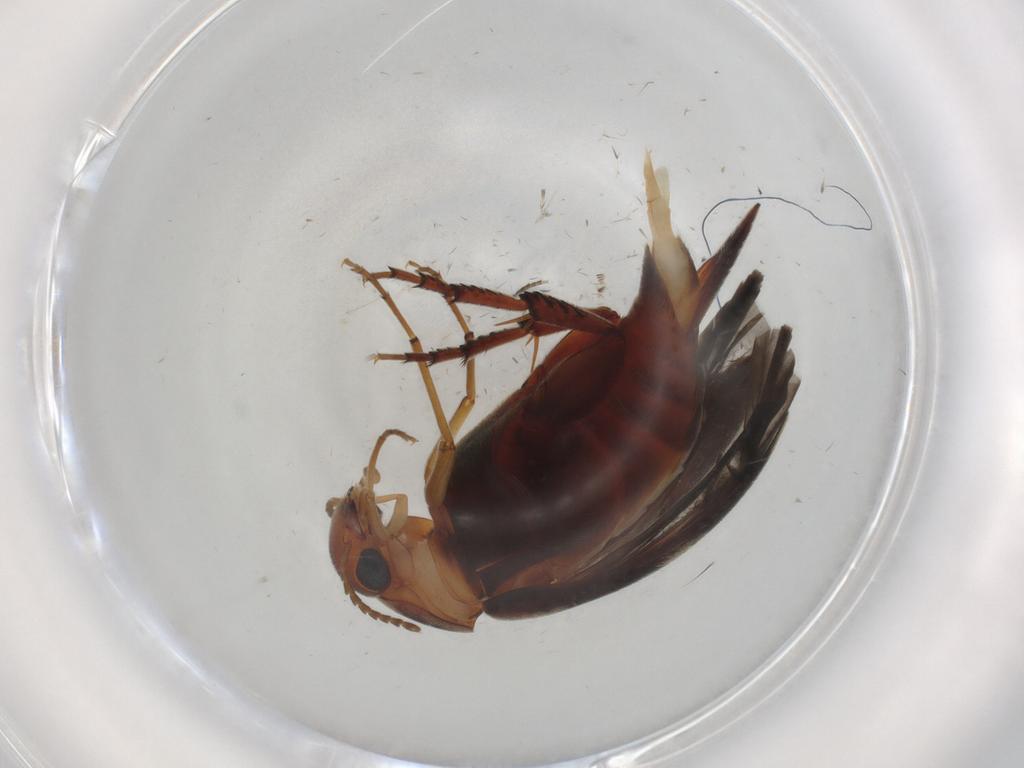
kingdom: Animalia
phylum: Arthropoda
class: Insecta
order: Coleoptera
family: Mordellidae
